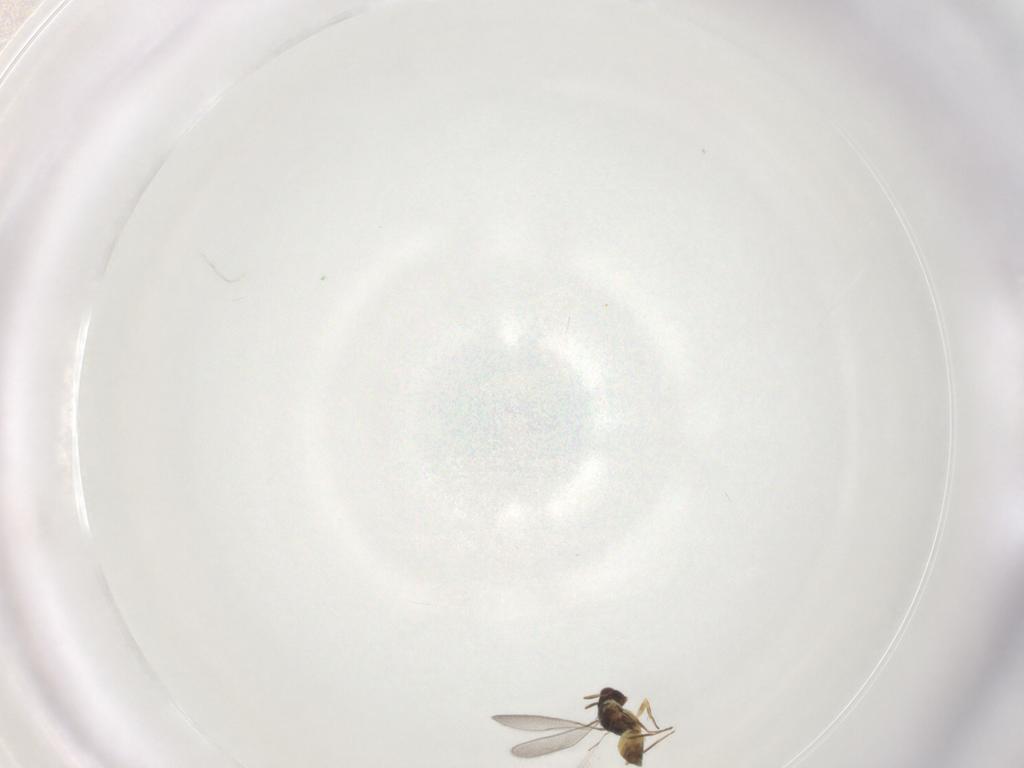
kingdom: Animalia
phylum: Arthropoda
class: Insecta
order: Hymenoptera
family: Mymaridae
